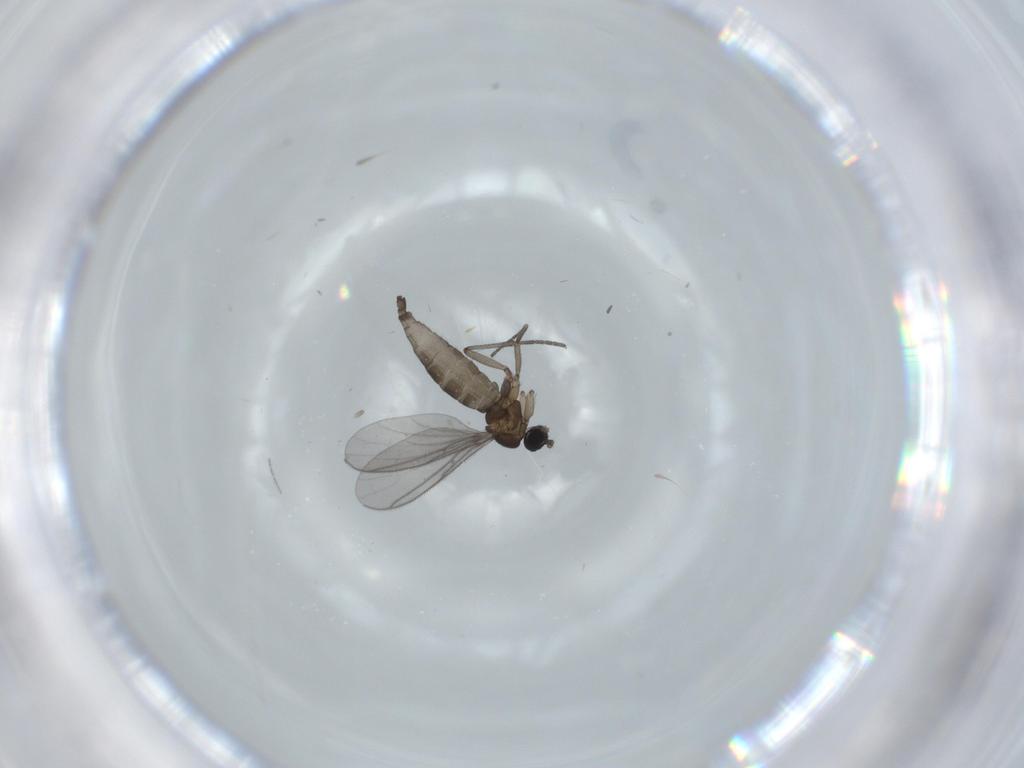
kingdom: Animalia
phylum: Arthropoda
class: Insecta
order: Diptera
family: Cecidomyiidae
